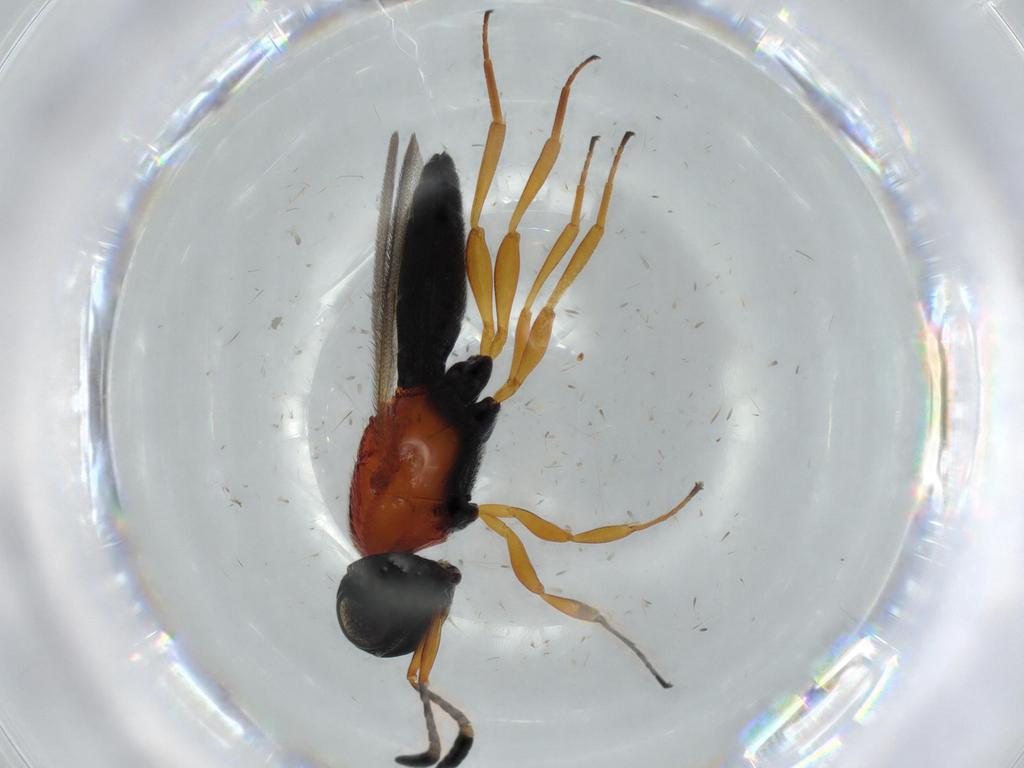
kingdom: Animalia
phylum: Arthropoda
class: Insecta
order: Hymenoptera
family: Scelionidae
